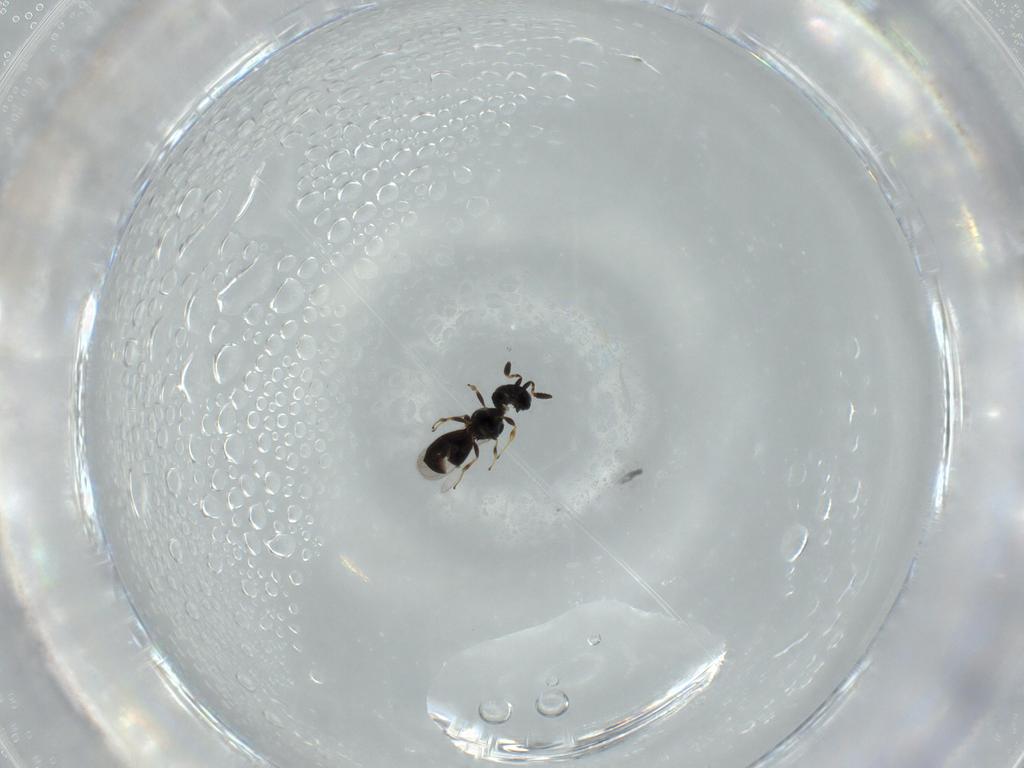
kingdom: Animalia
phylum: Arthropoda
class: Insecta
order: Hymenoptera
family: Scelionidae
